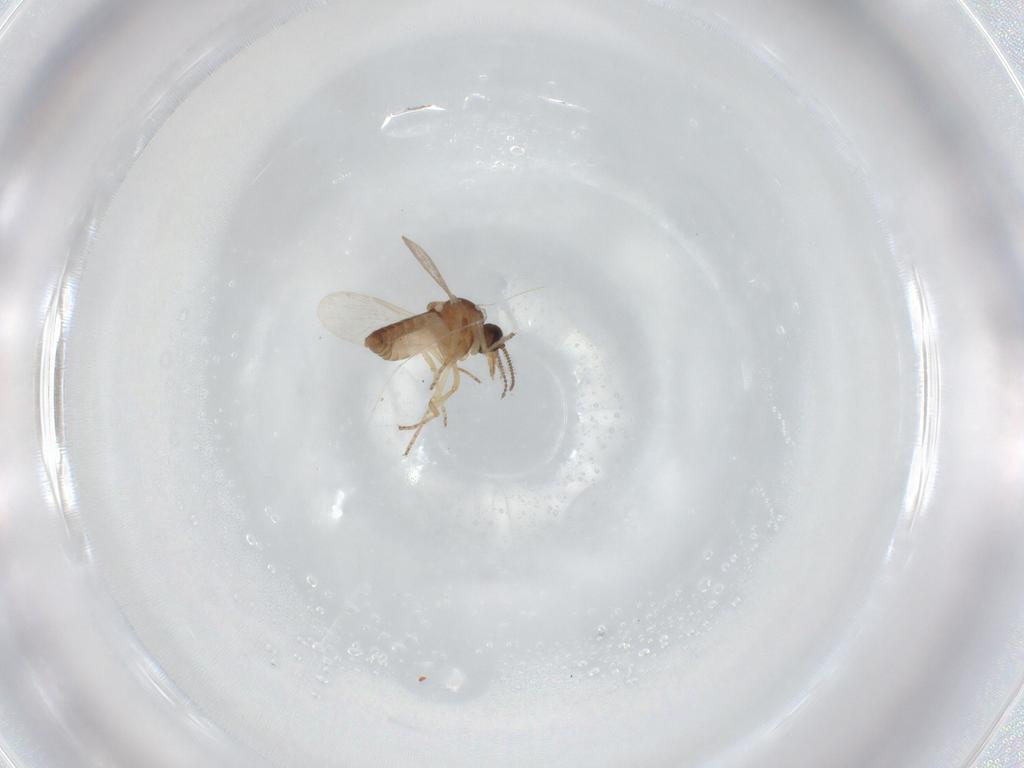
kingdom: Animalia
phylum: Arthropoda
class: Insecta
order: Diptera
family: Ceratopogonidae
